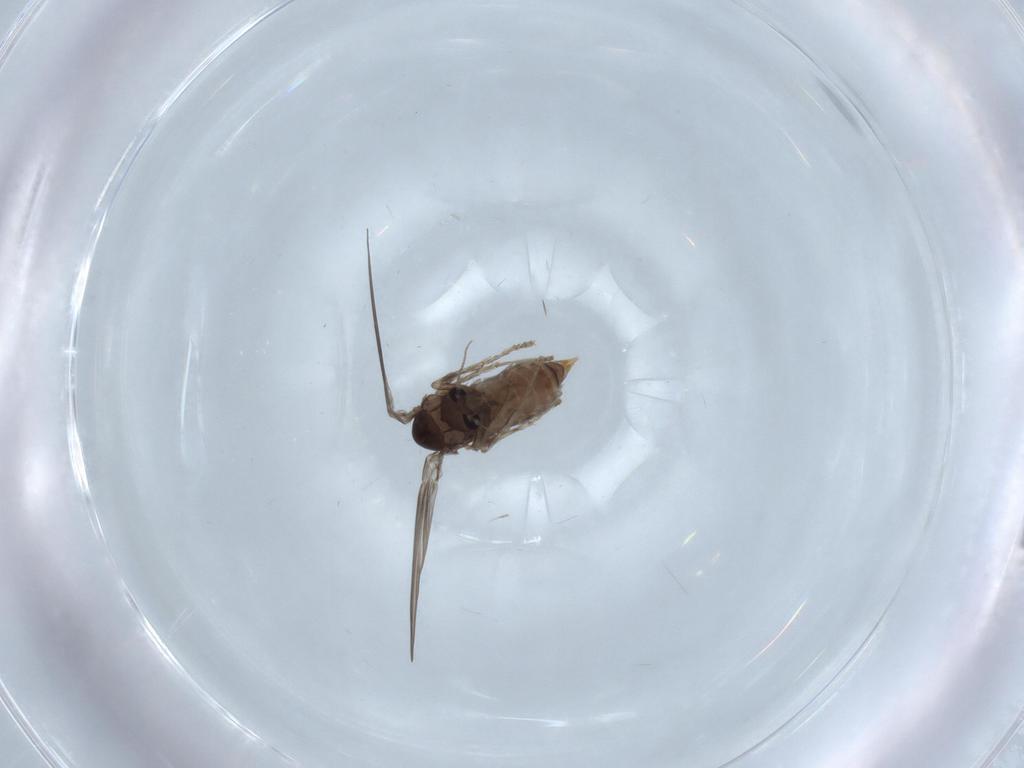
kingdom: Animalia
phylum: Arthropoda
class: Insecta
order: Diptera
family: Psychodidae
